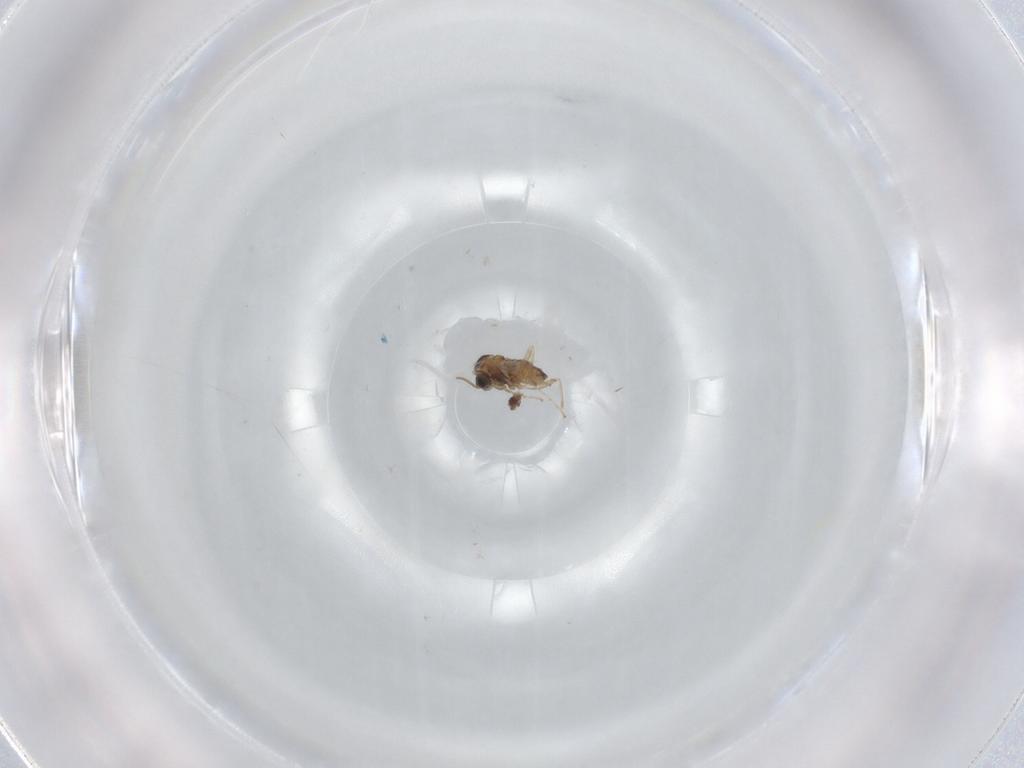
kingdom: Animalia
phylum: Arthropoda
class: Insecta
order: Diptera
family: Cecidomyiidae
